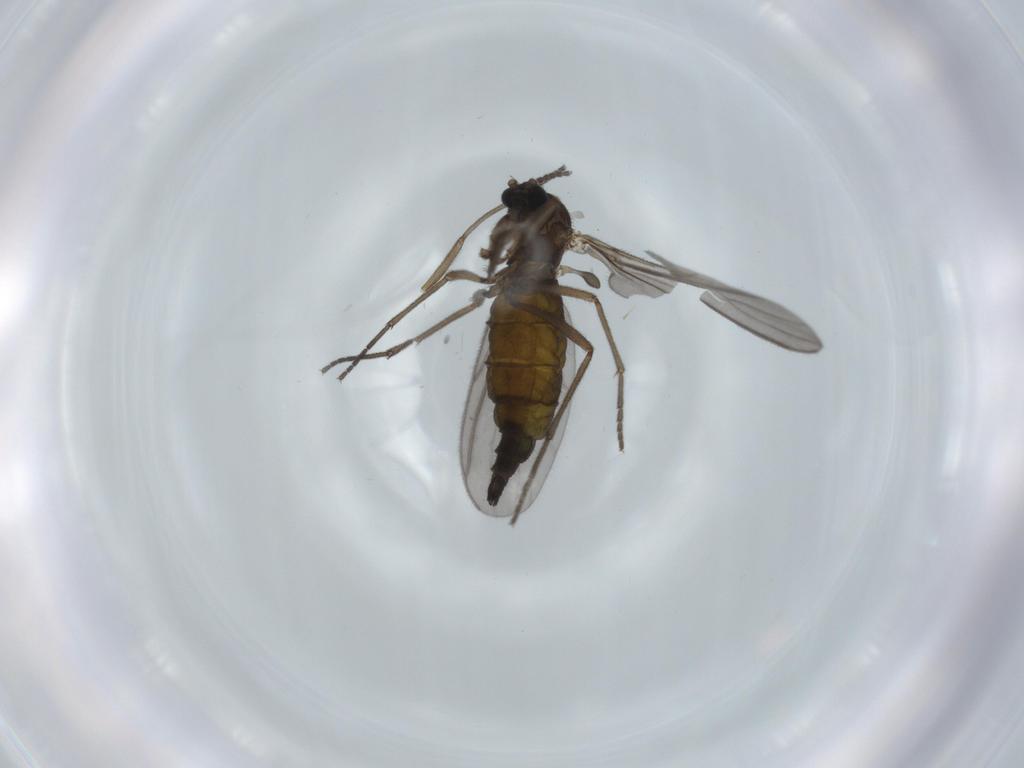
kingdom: Animalia
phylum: Arthropoda
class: Insecta
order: Diptera
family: Sciaridae
